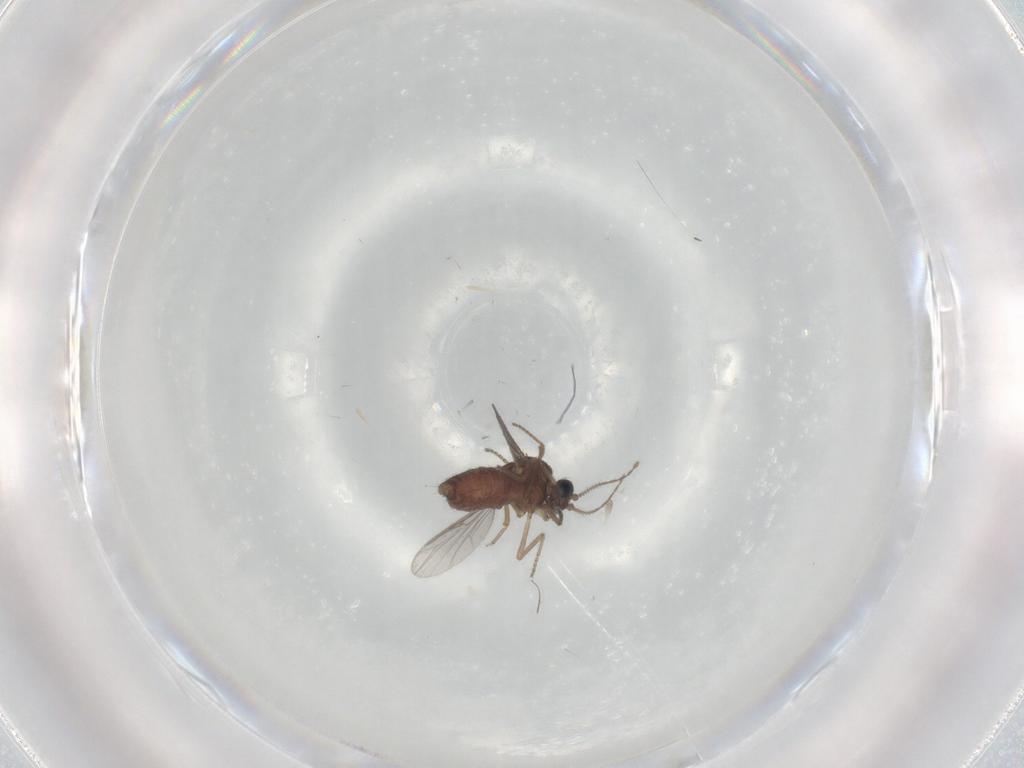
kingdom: Animalia
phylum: Arthropoda
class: Insecta
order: Diptera
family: Ceratopogonidae
